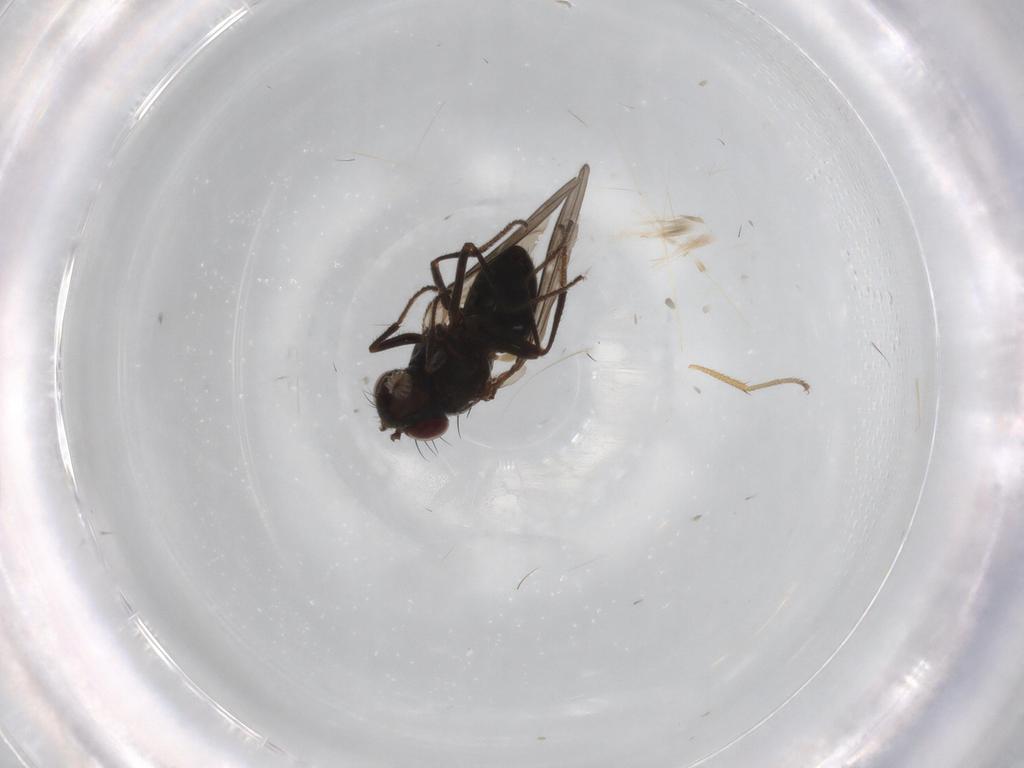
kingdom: Animalia
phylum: Arthropoda
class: Insecta
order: Diptera
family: Ephydridae
